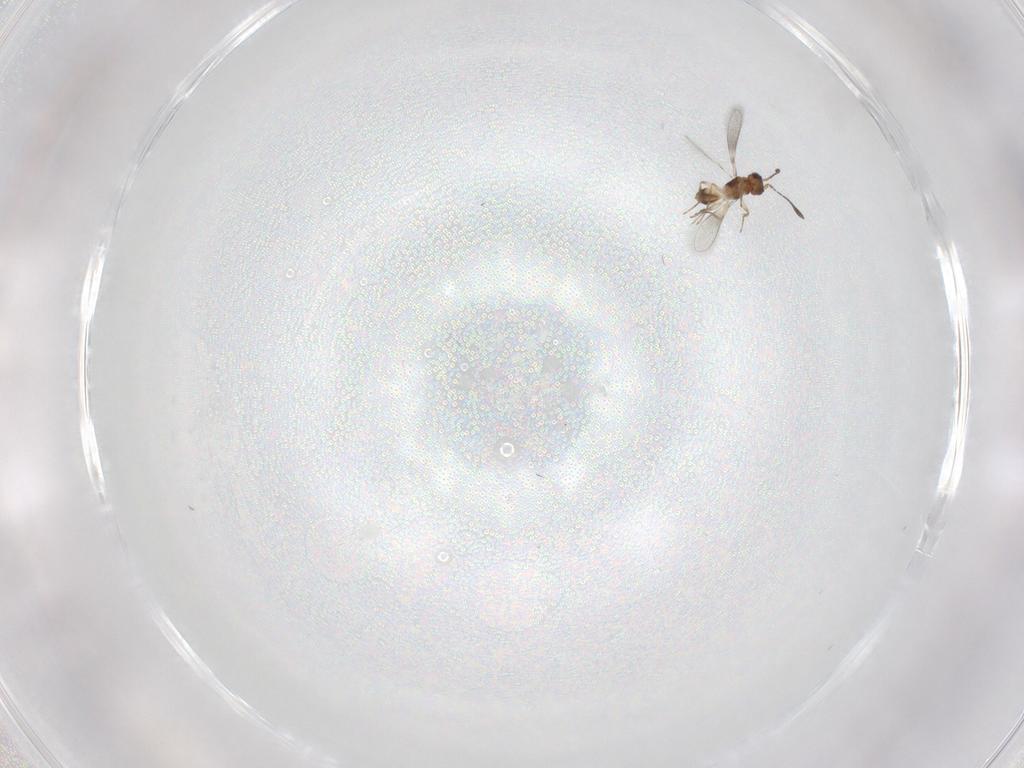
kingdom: Animalia
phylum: Arthropoda
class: Insecta
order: Hymenoptera
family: Mymaridae
